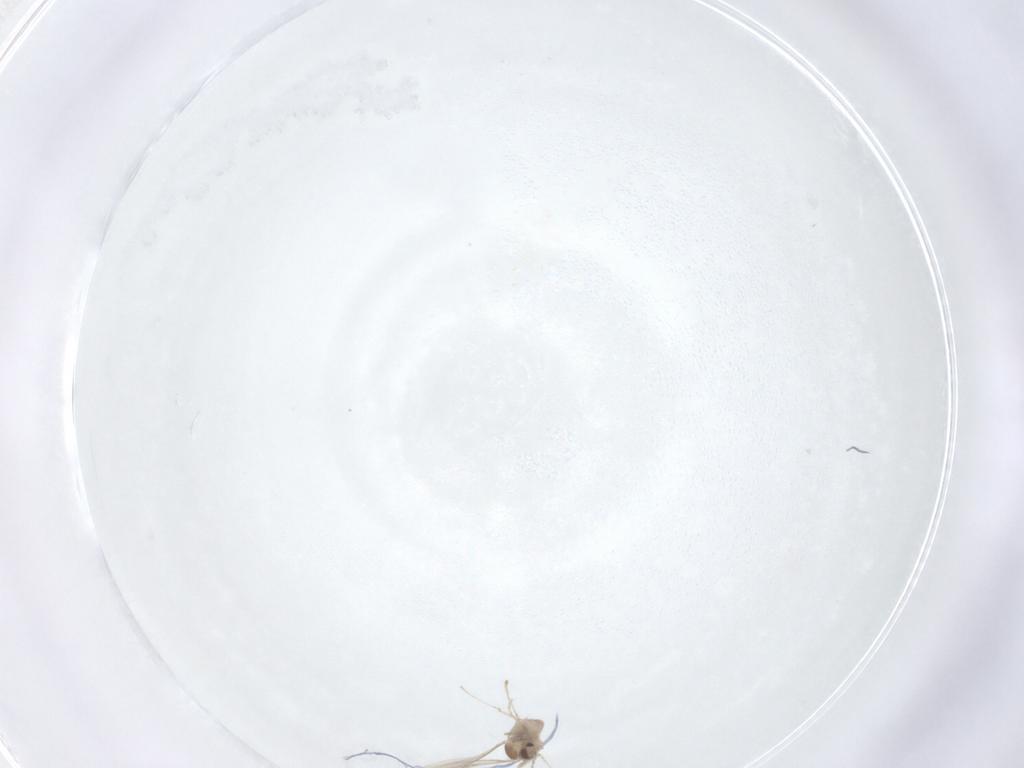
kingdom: Animalia
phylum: Arthropoda
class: Insecta
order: Diptera
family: Cecidomyiidae
